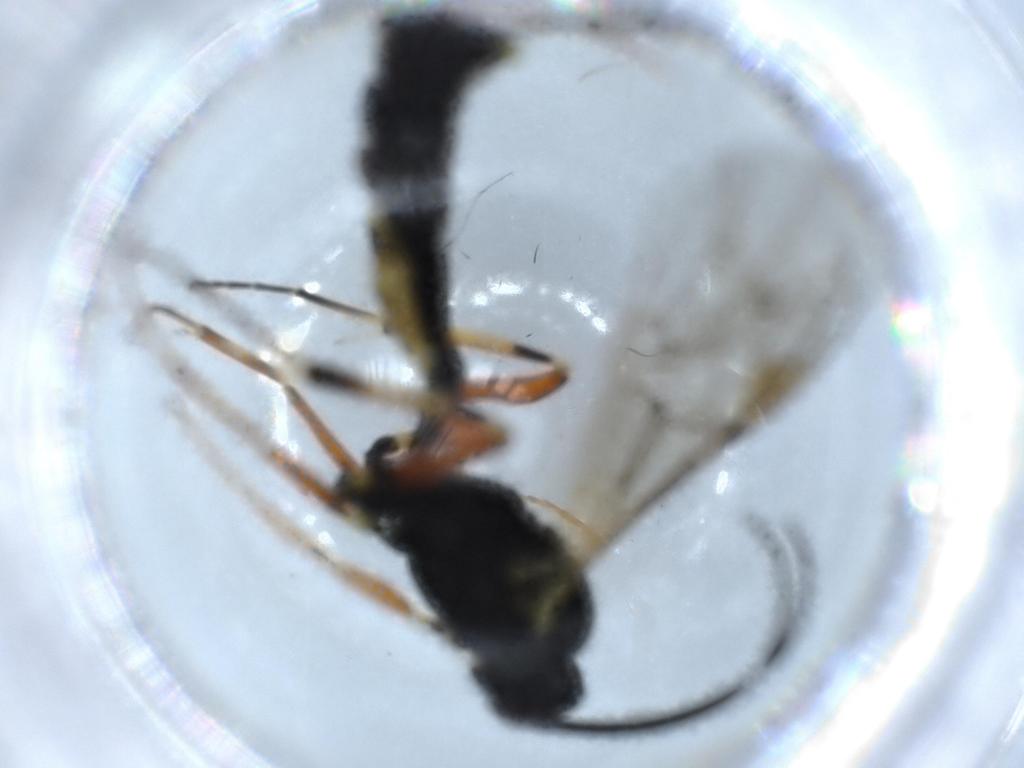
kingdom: Animalia
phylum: Arthropoda
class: Insecta
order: Hymenoptera
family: Ichneumonidae
